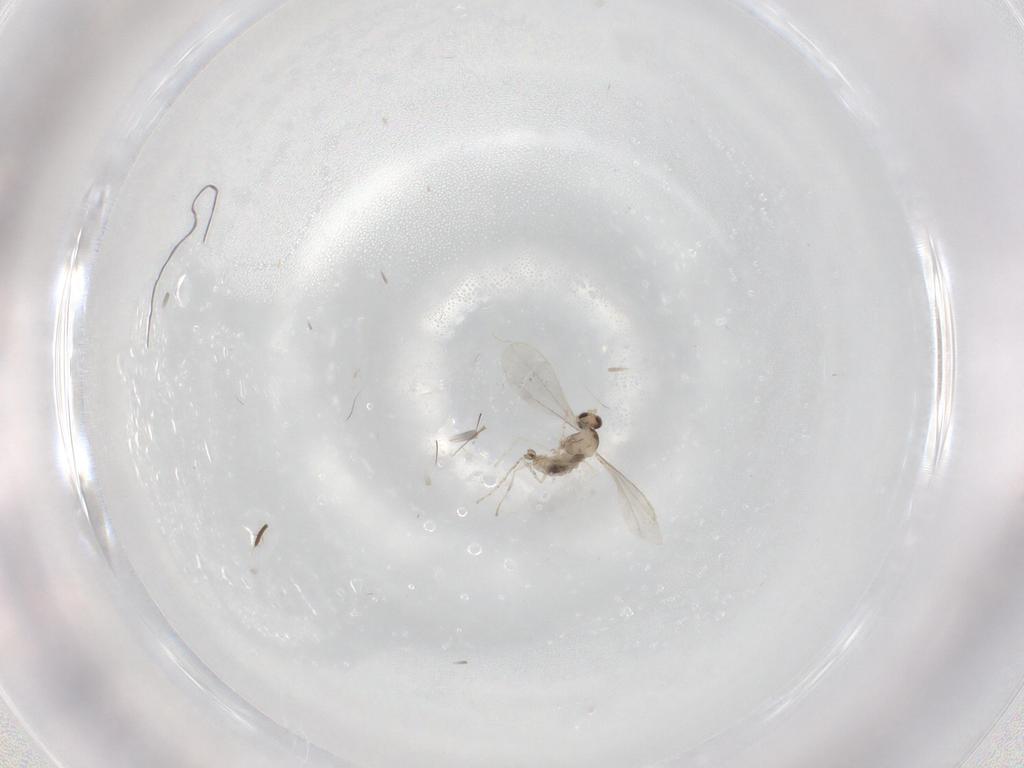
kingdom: Animalia
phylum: Arthropoda
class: Insecta
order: Diptera
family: Cecidomyiidae
